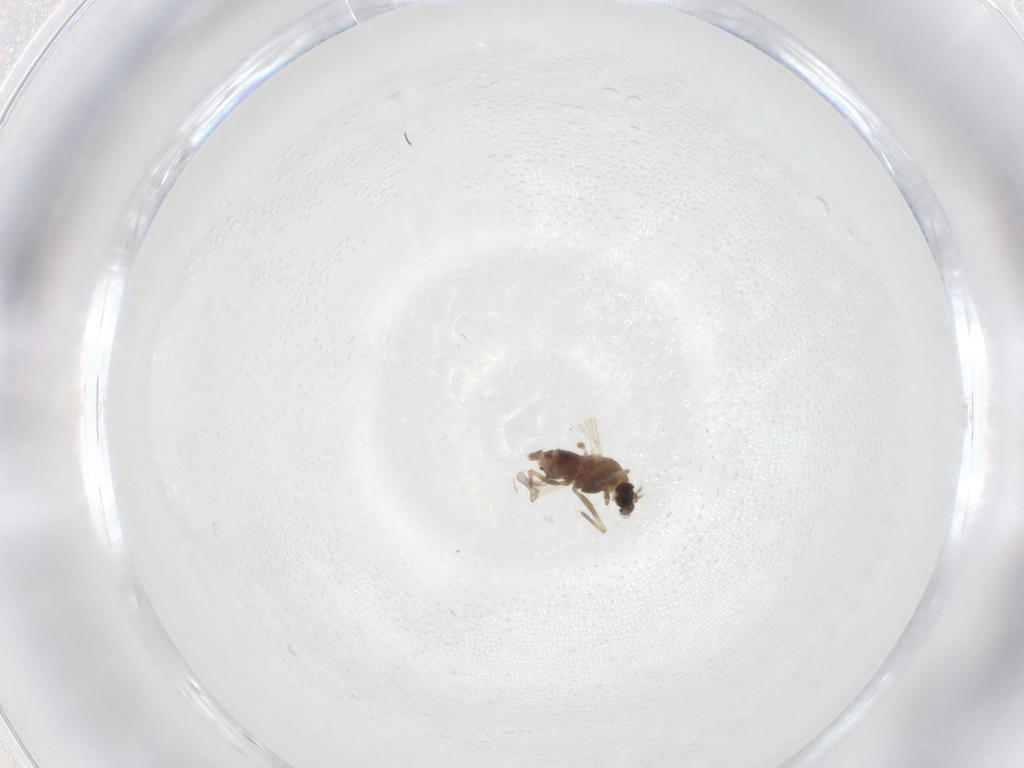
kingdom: Animalia
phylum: Arthropoda
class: Insecta
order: Diptera
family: Chironomidae
